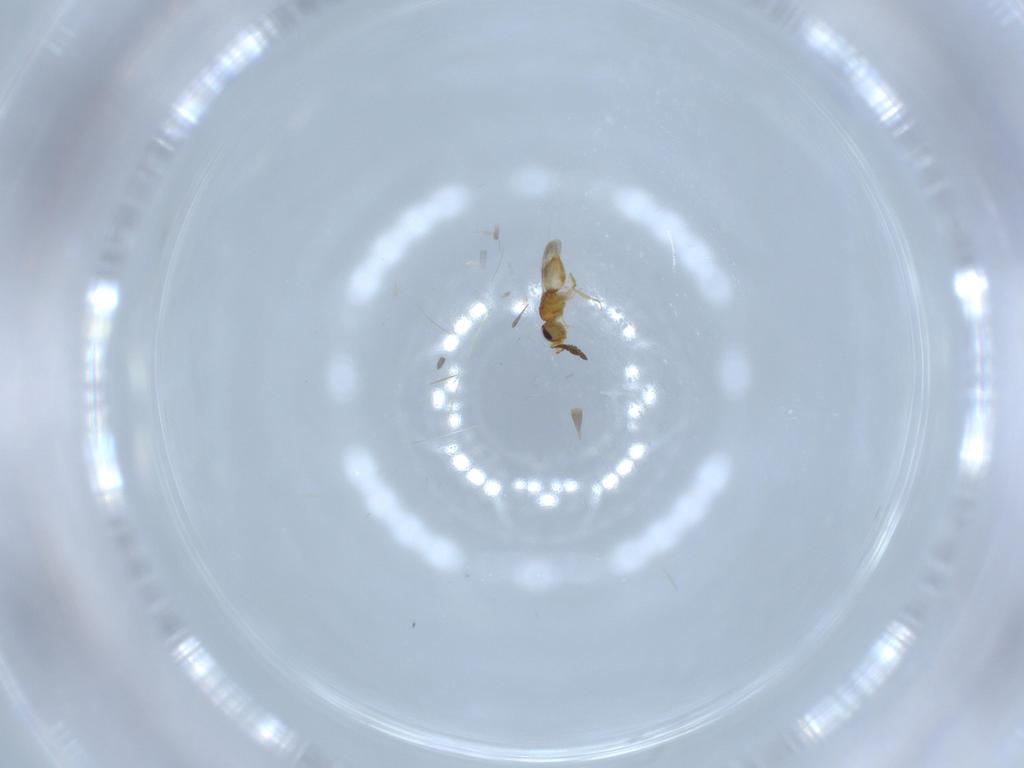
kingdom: Animalia
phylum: Arthropoda
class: Insecta
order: Hymenoptera
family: Ceraphronidae
